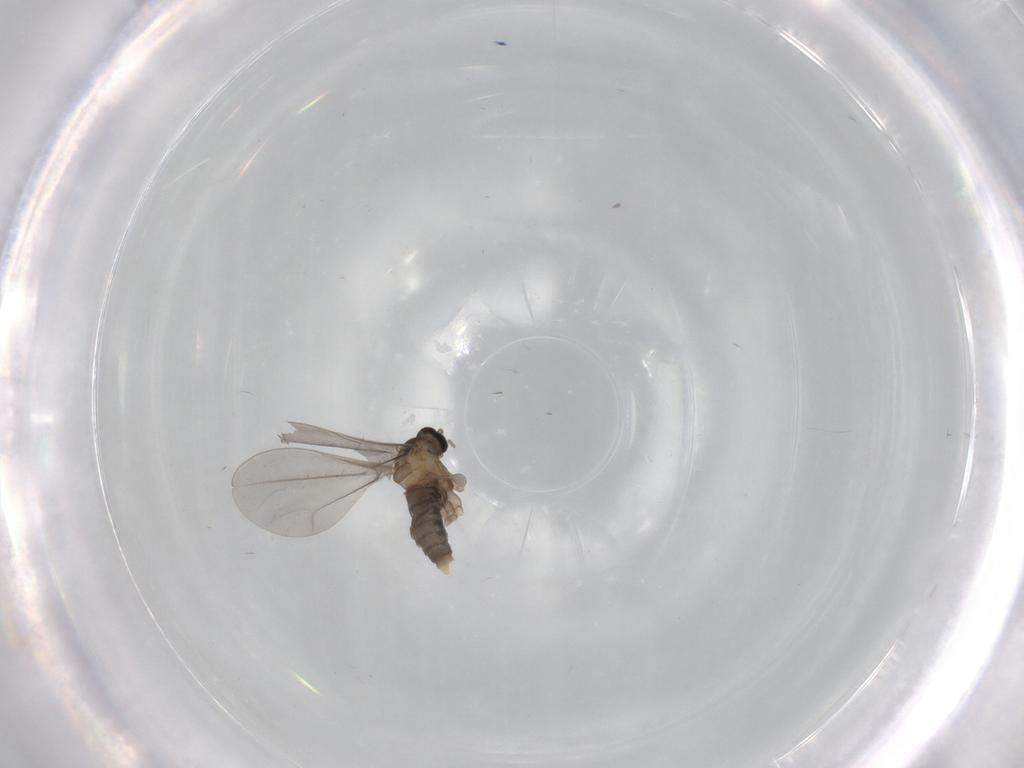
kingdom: Animalia
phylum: Arthropoda
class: Insecta
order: Diptera
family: Cecidomyiidae
